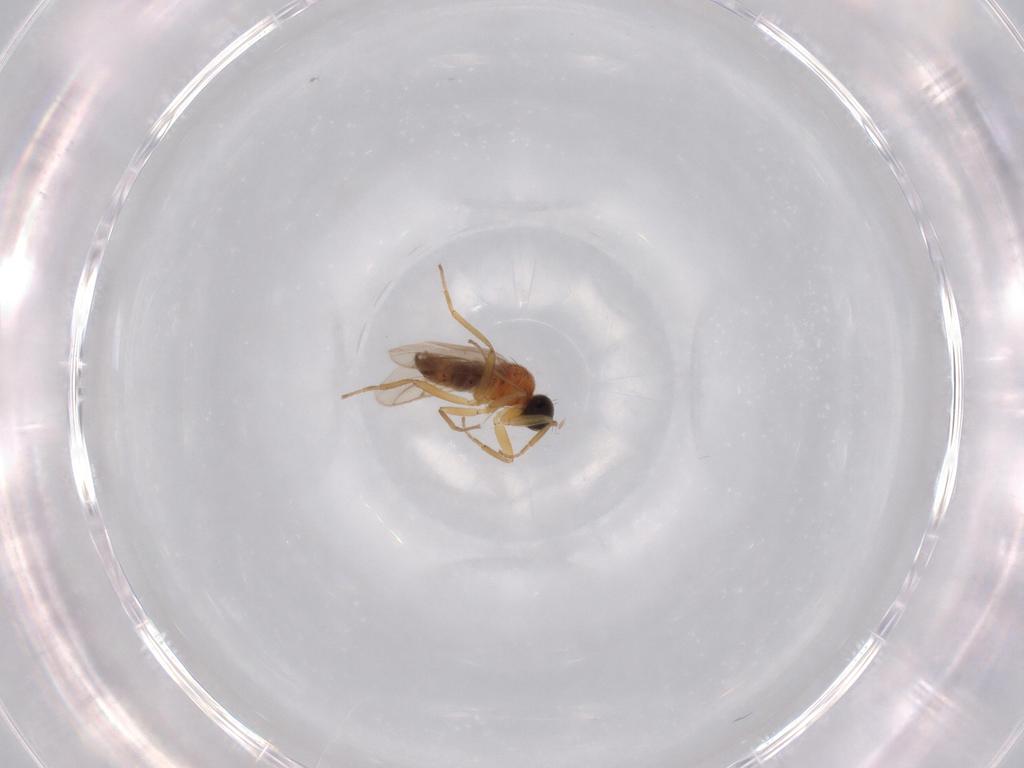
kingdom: Animalia
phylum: Arthropoda
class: Insecta
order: Diptera
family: Hybotidae
